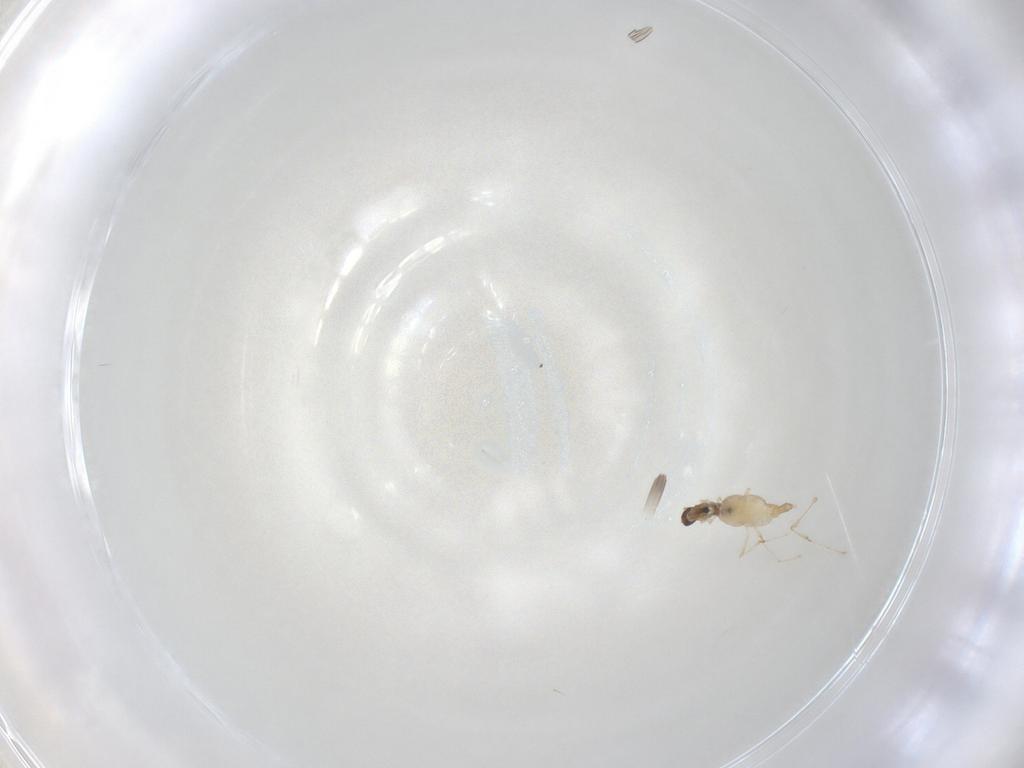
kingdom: Animalia
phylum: Arthropoda
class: Insecta
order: Diptera
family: Cecidomyiidae
